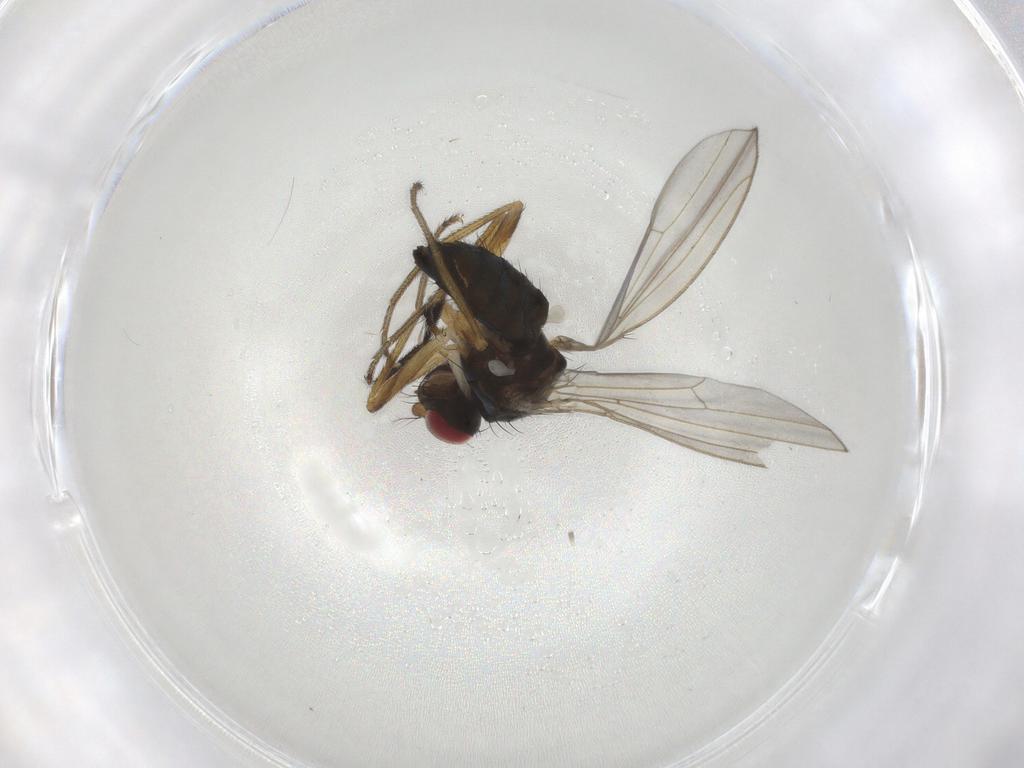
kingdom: Animalia
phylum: Arthropoda
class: Insecta
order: Diptera
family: Drosophilidae
